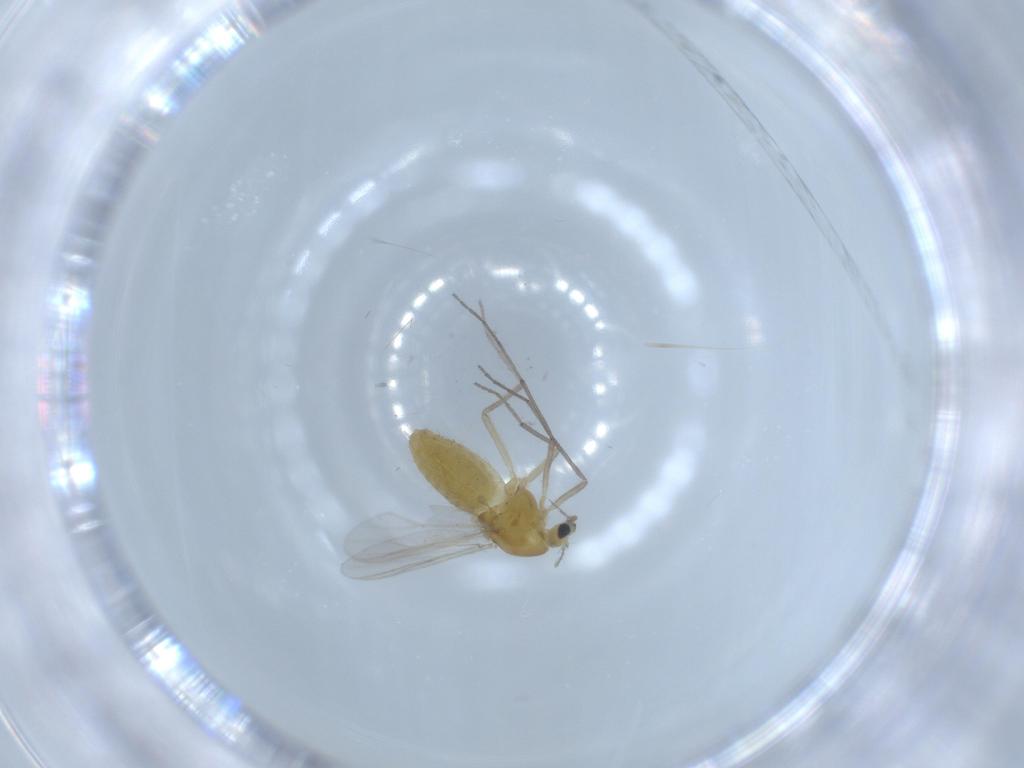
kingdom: Animalia
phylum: Arthropoda
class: Insecta
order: Diptera
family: Chironomidae
